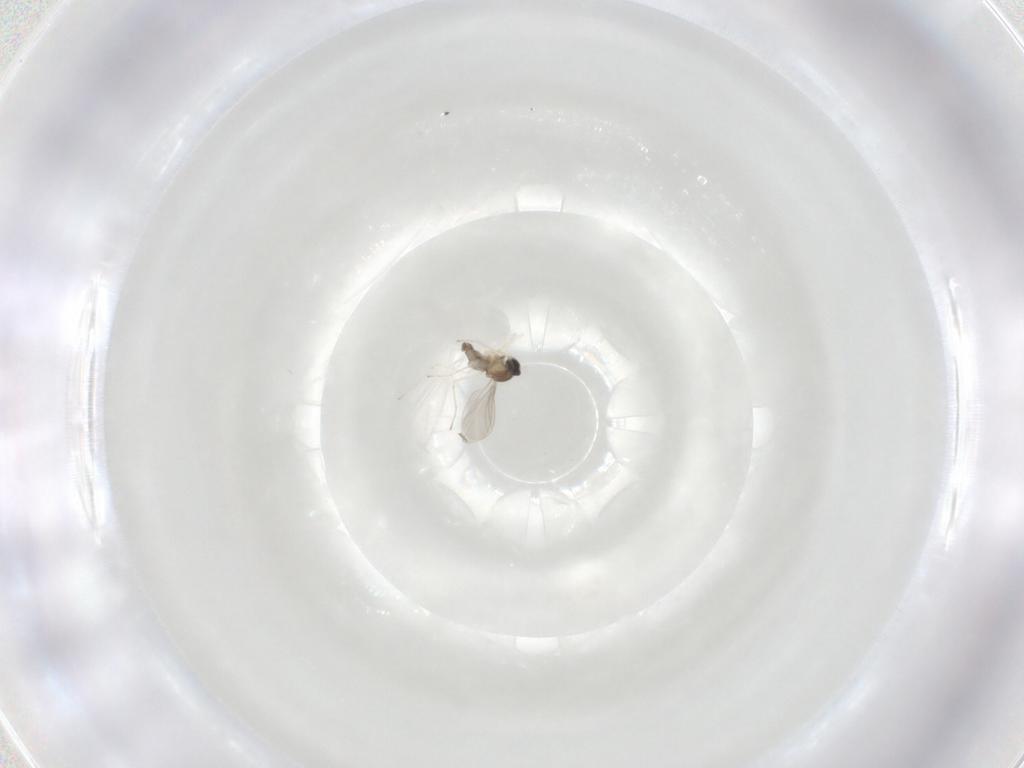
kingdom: Animalia
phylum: Arthropoda
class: Insecta
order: Diptera
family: Cecidomyiidae
